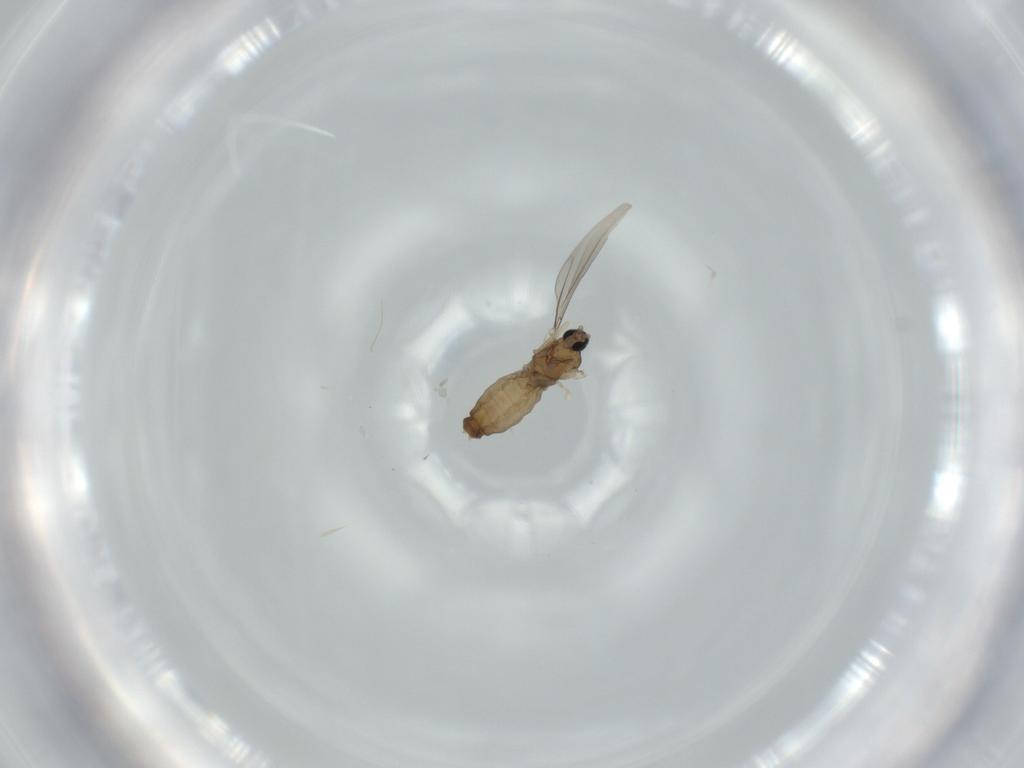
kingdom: Animalia
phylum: Arthropoda
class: Insecta
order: Diptera
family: Sphaeroceridae
